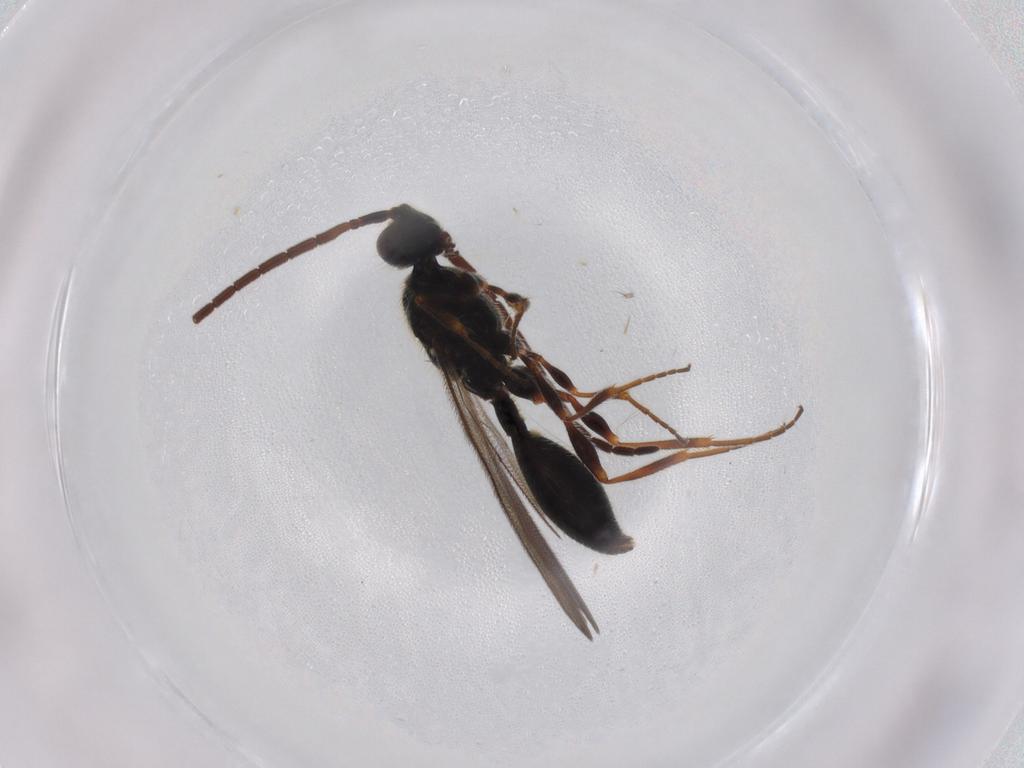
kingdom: Animalia
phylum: Arthropoda
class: Insecta
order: Hymenoptera
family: Diapriidae
